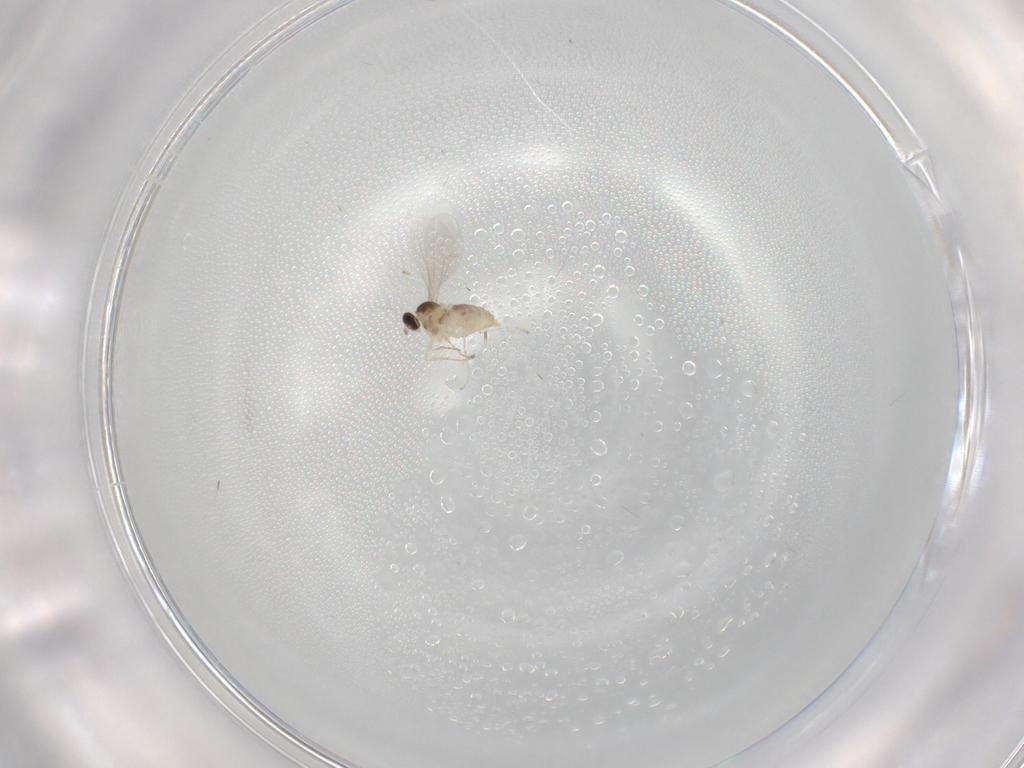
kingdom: Animalia
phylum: Arthropoda
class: Insecta
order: Diptera
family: Cecidomyiidae
